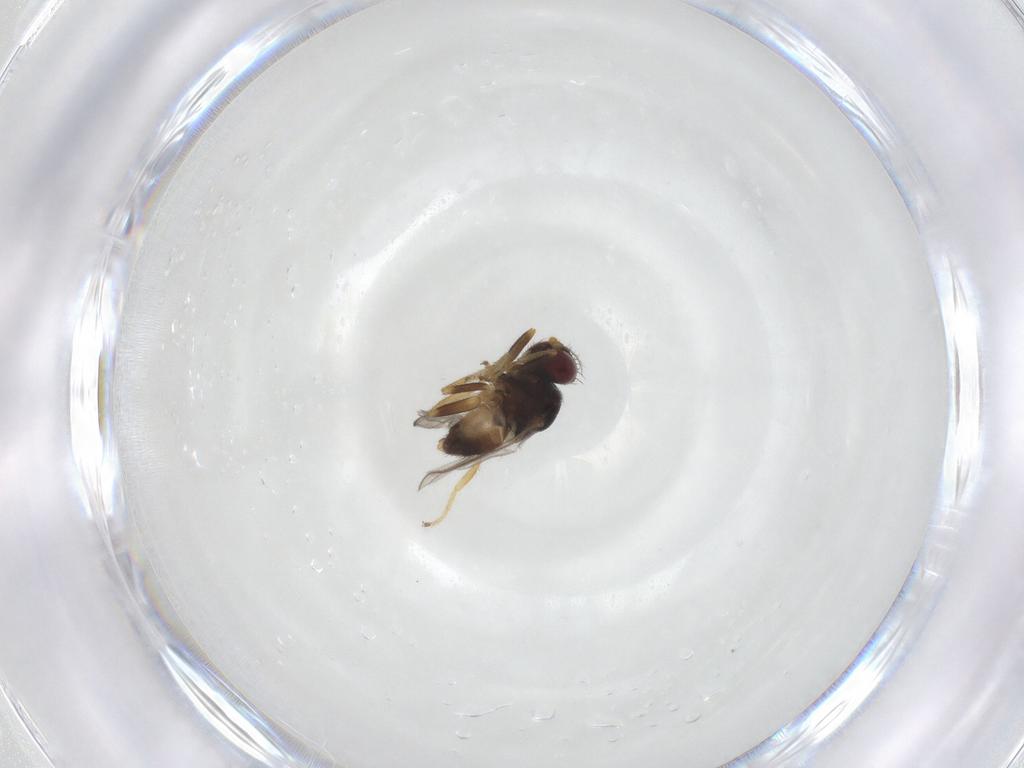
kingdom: Animalia
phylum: Arthropoda
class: Insecta
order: Diptera
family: Chloropidae
